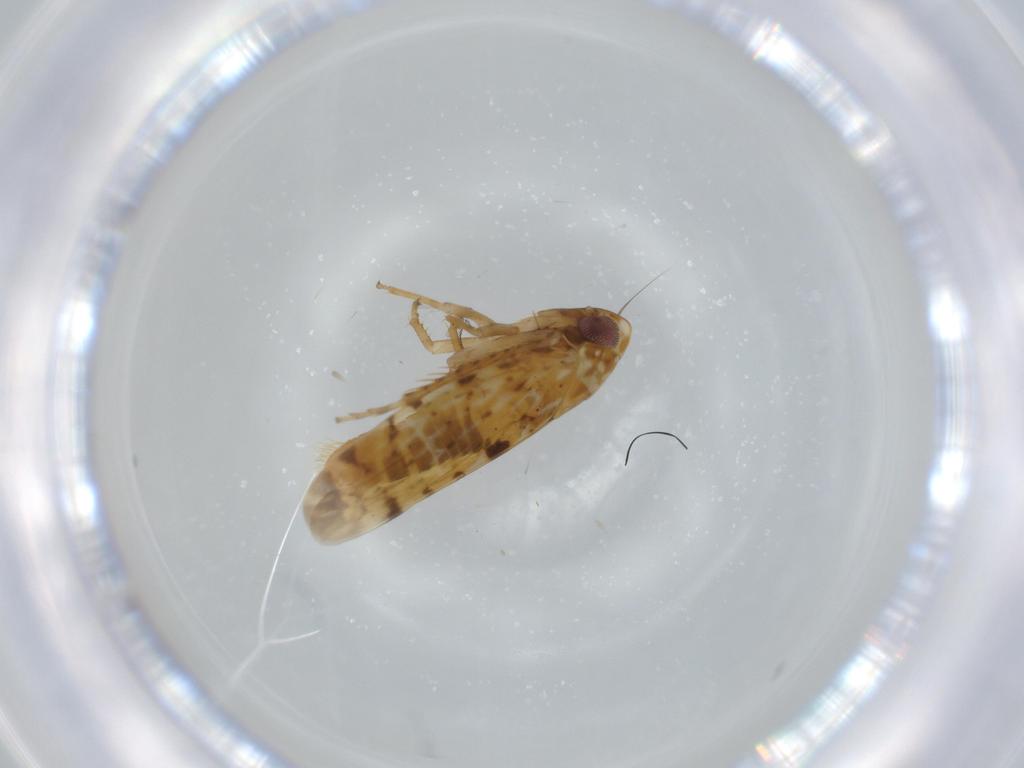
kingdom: Animalia
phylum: Arthropoda
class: Insecta
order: Hemiptera
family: Cicadellidae
